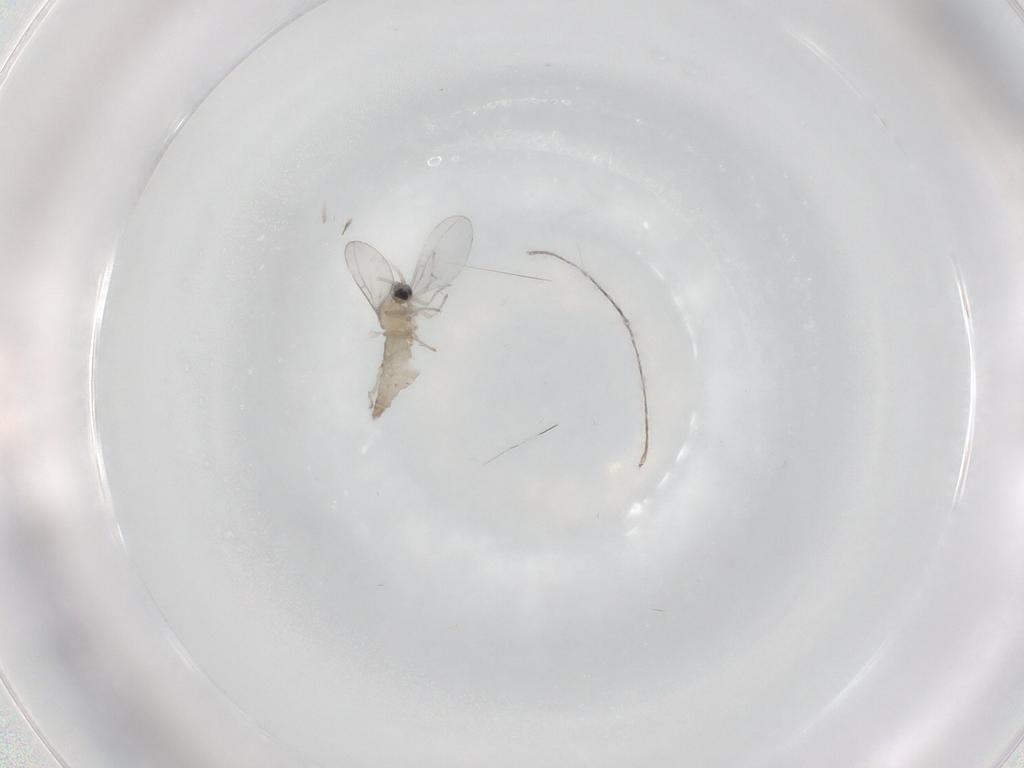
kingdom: Animalia
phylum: Arthropoda
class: Insecta
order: Diptera
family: Cecidomyiidae
